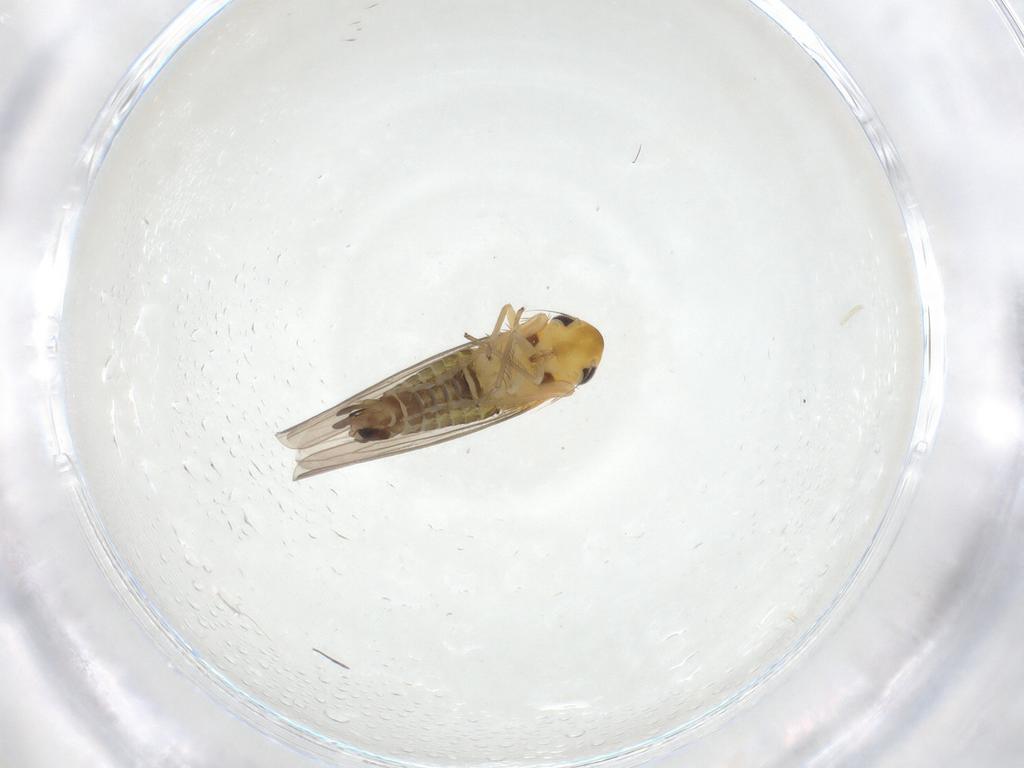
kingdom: Animalia
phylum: Arthropoda
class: Insecta
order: Hemiptera
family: Cicadellidae
